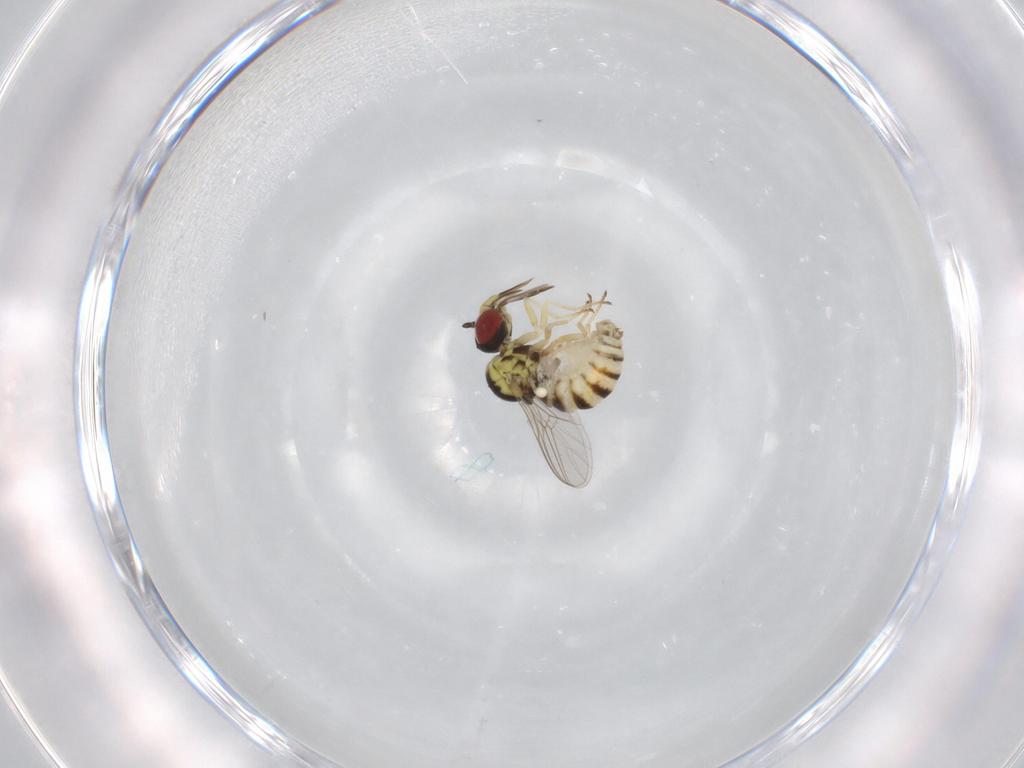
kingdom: Animalia
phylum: Arthropoda
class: Insecta
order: Diptera
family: Bombyliidae
